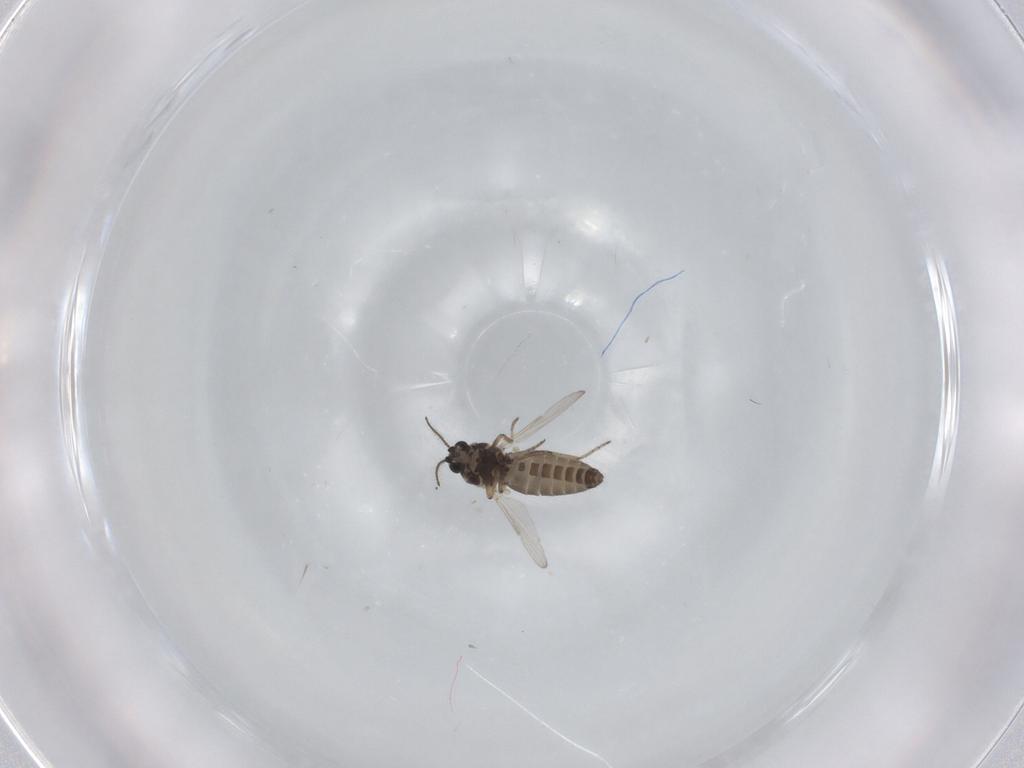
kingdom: Animalia
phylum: Arthropoda
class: Insecta
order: Diptera
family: Ceratopogonidae
